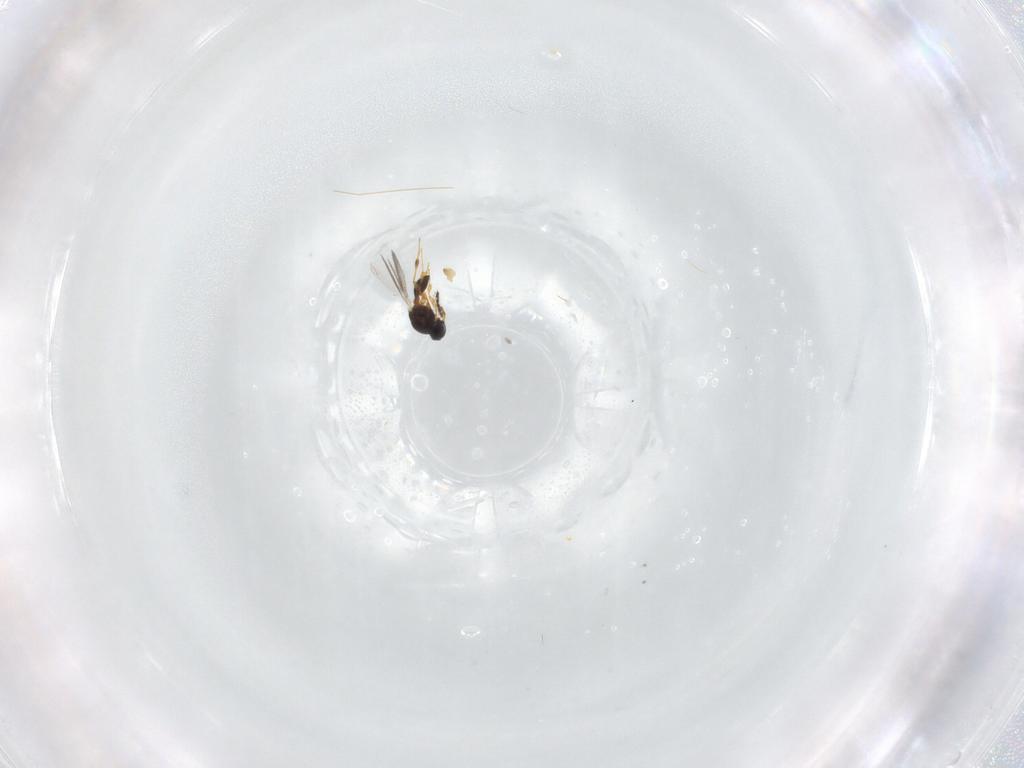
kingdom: Animalia
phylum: Arthropoda
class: Insecta
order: Hymenoptera
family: Platygastridae
